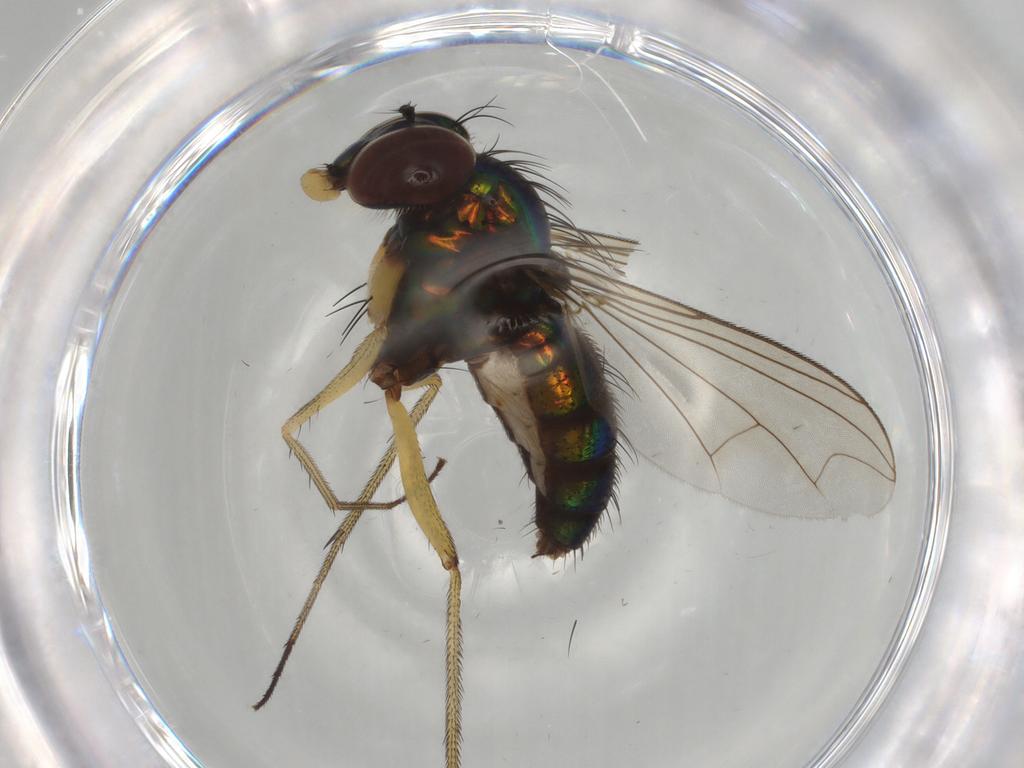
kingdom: Animalia
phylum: Arthropoda
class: Insecta
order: Diptera
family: Dolichopodidae
